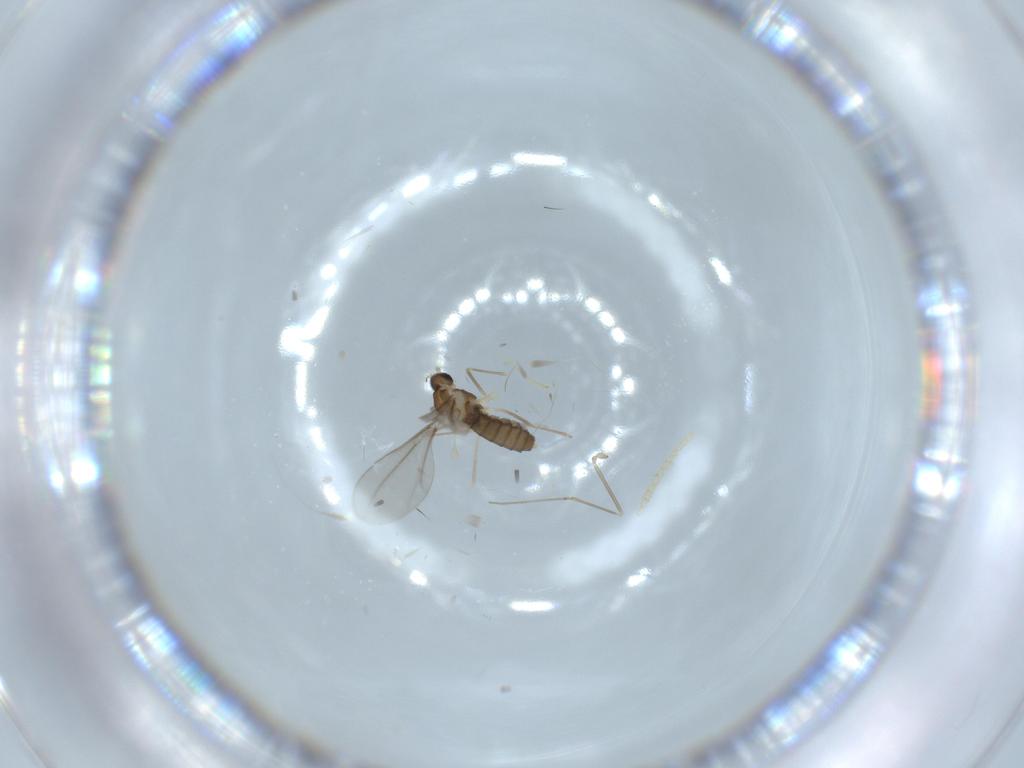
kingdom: Animalia
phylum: Arthropoda
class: Insecta
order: Diptera
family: Cecidomyiidae
